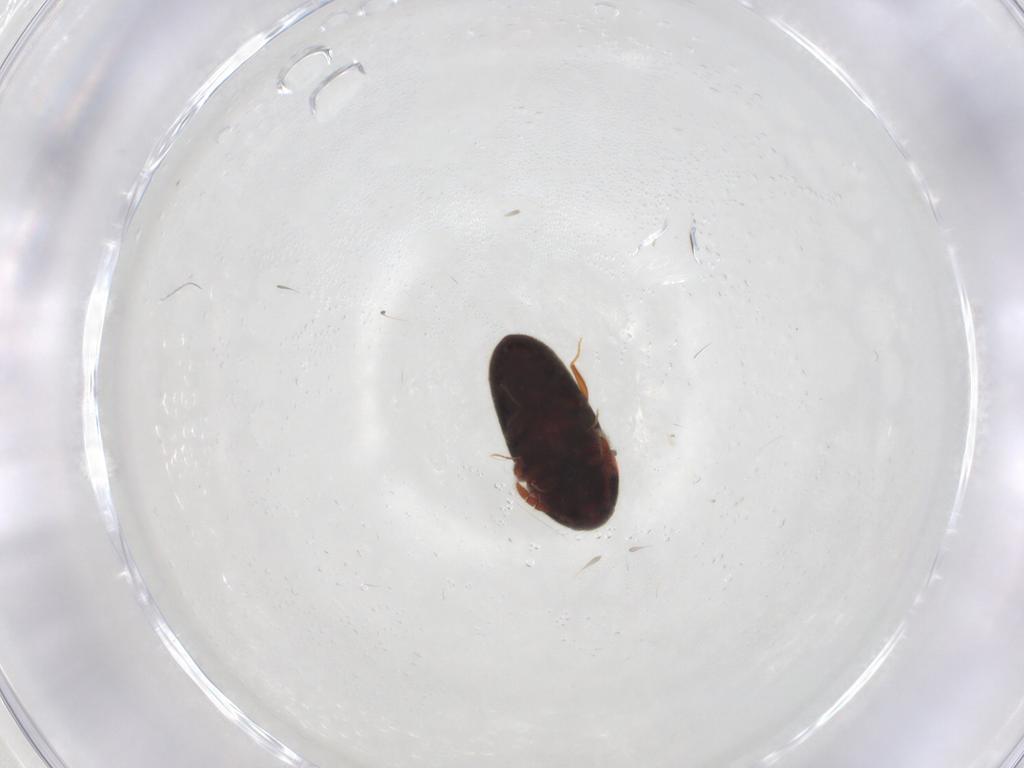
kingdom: Animalia
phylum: Arthropoda
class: Insecta
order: Coleoptera
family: Throscidae
